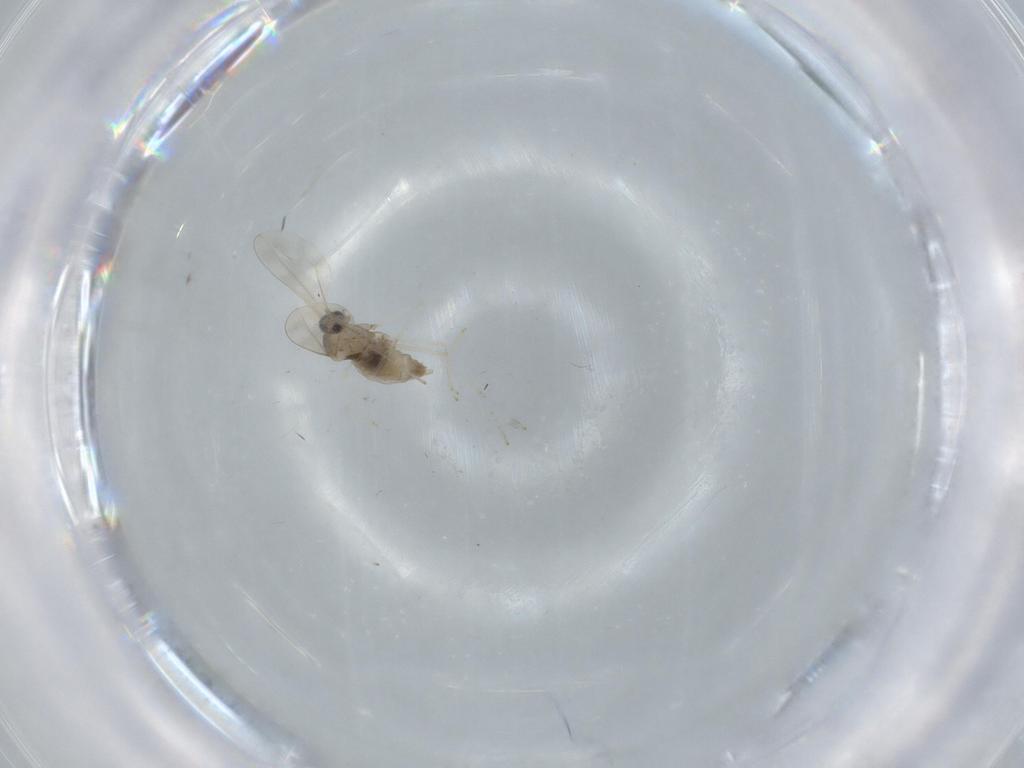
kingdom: Animalia
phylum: Arthropoda
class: Insecta
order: Diptera
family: Cecidomyiidae
